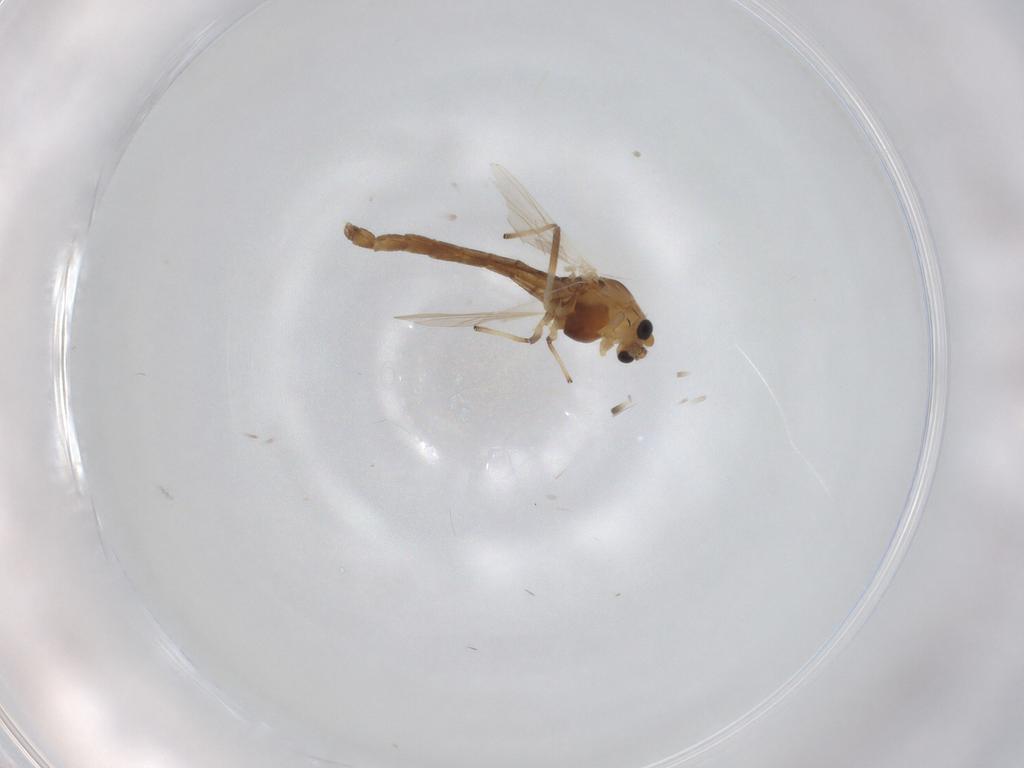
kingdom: Animalia
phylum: Arthropoda
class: Insecta
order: Diptera
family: Chironomidae
